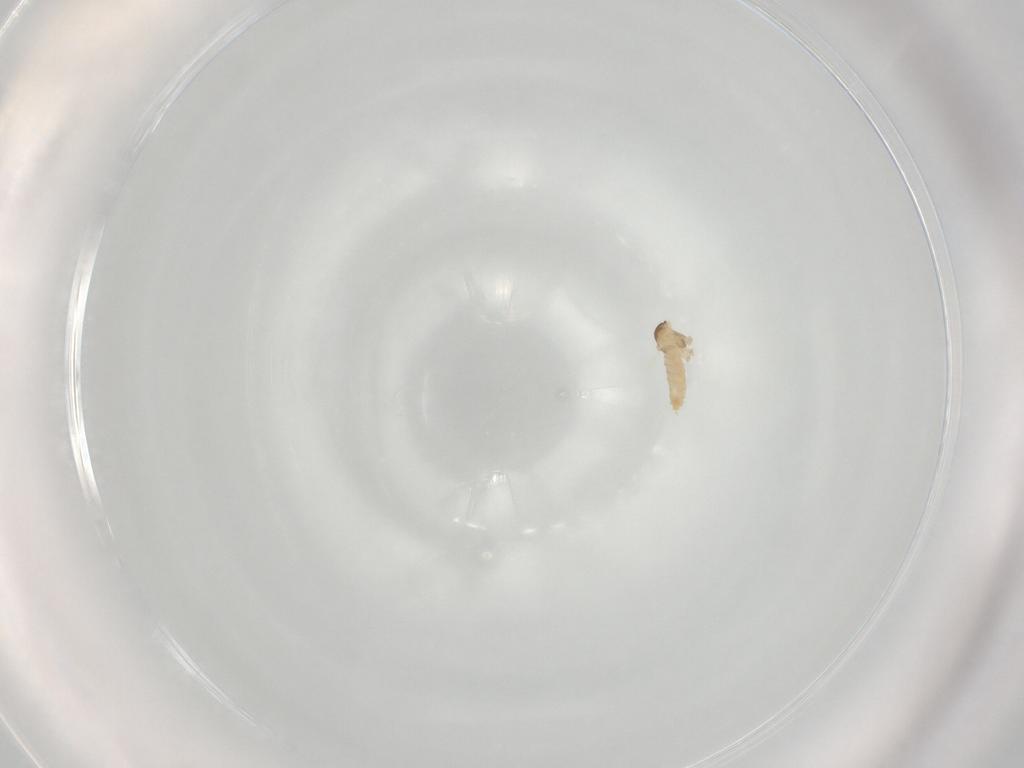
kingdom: Animalia
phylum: Arthropoda
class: Insecta
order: Diptera
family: Cecidomyiidae
